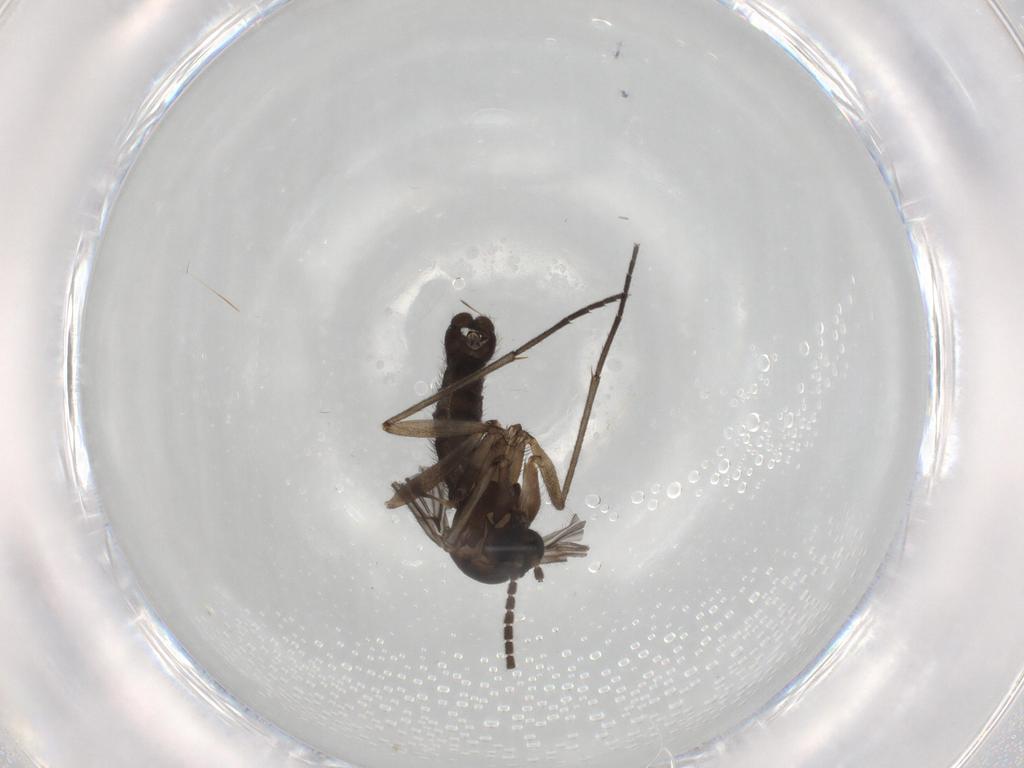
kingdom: Animalia
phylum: Arthropoda
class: Insecta
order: Diptera
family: Sciaridae
